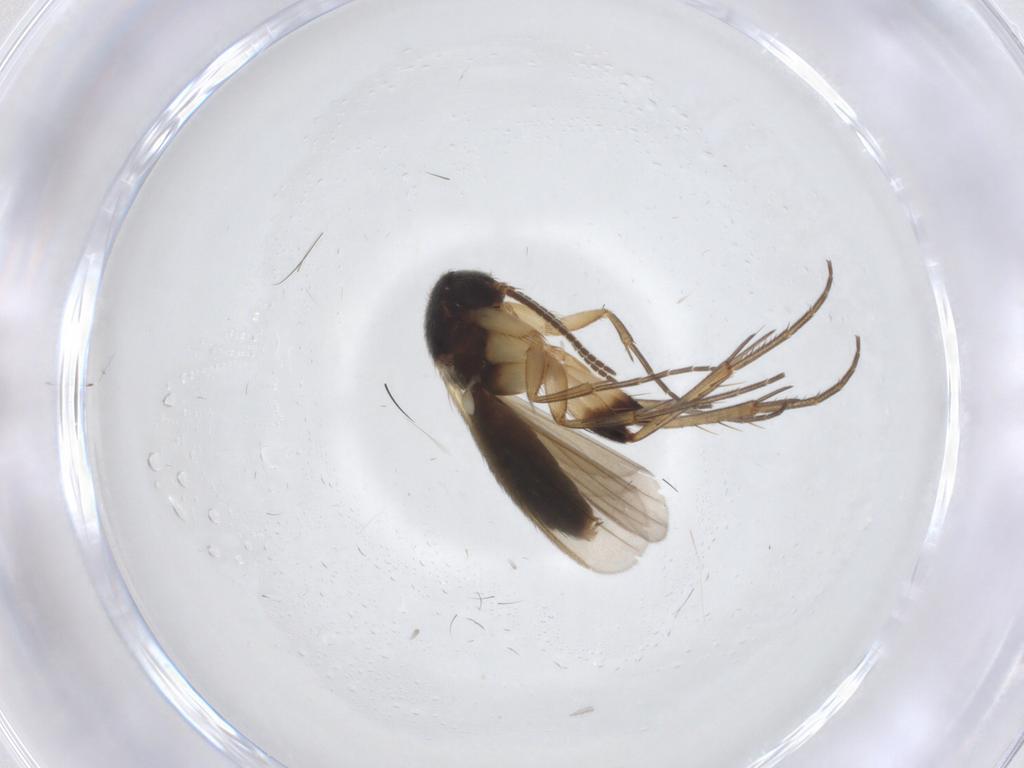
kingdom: Animalia
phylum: Arthropoda
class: Insecta
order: Diptera
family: Mycetophilidae
